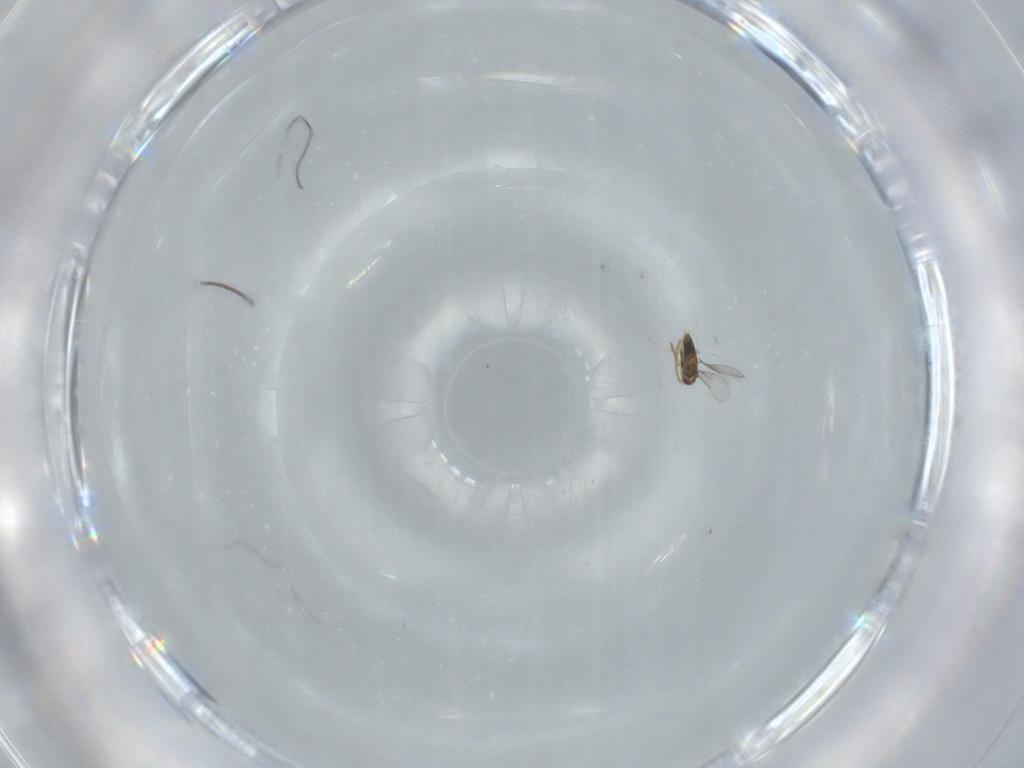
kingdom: Animalia
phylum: Arthropoda
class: Insecta
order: Hymenoptera
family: Aphelinidae
